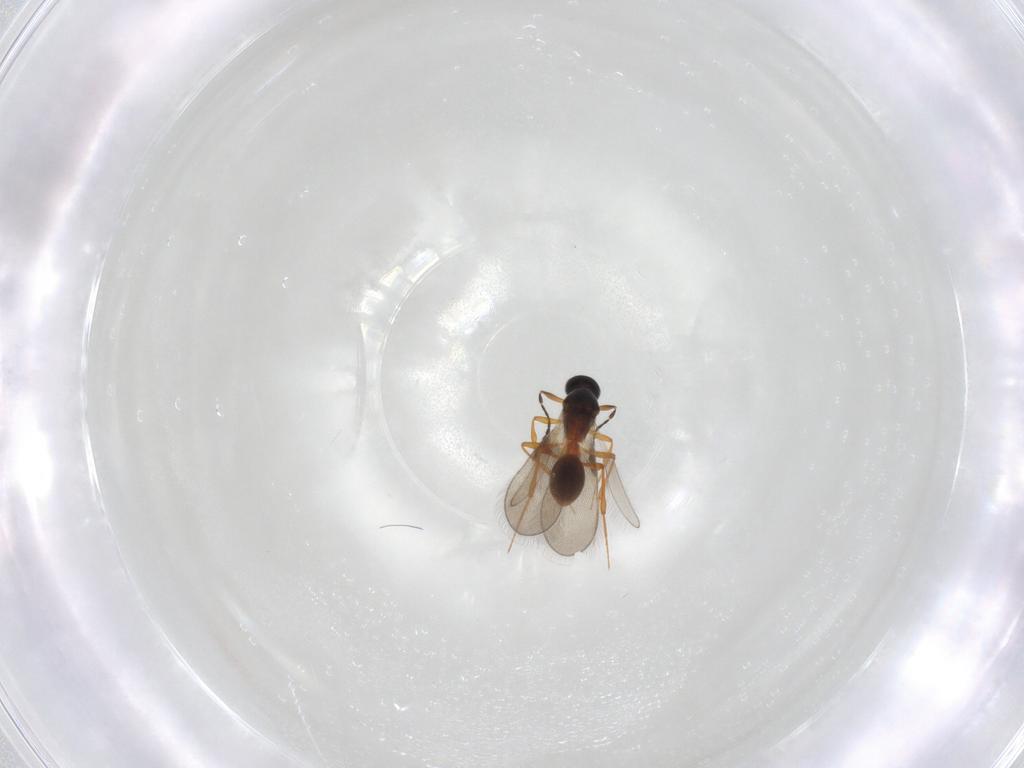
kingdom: Animalia
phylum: Arthropoda
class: Insecta
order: Hymenoptera
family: Platygastridae
